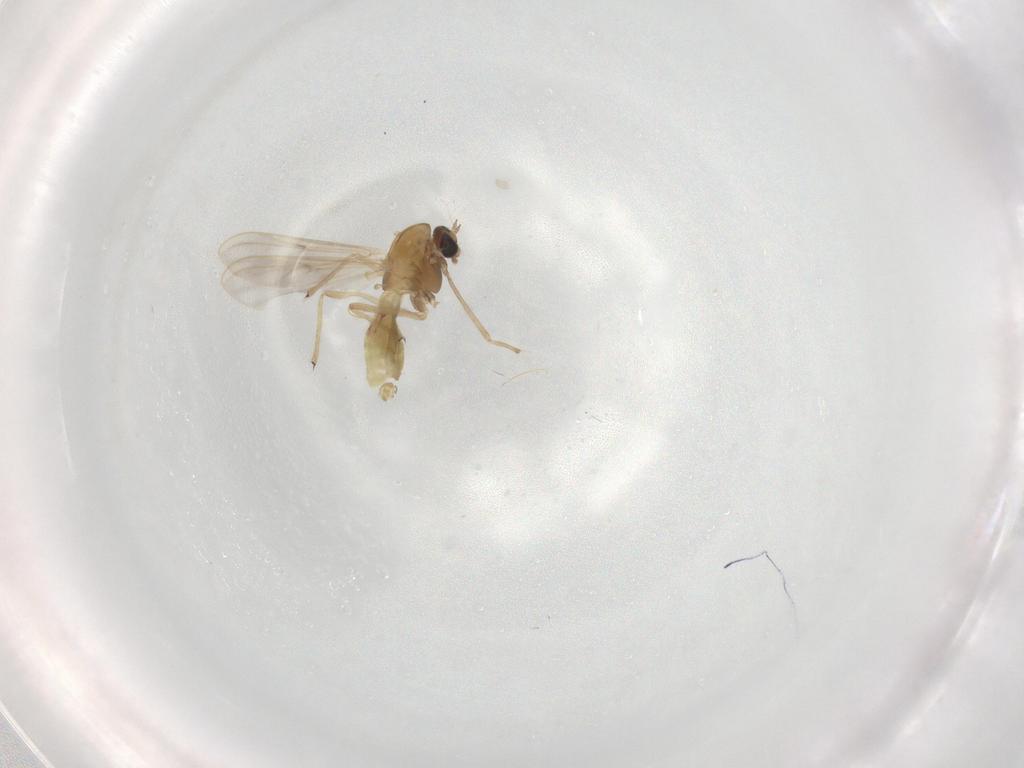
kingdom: Animalia
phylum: Arthropoda
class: Insecta
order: Diptera
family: Chironomidae
